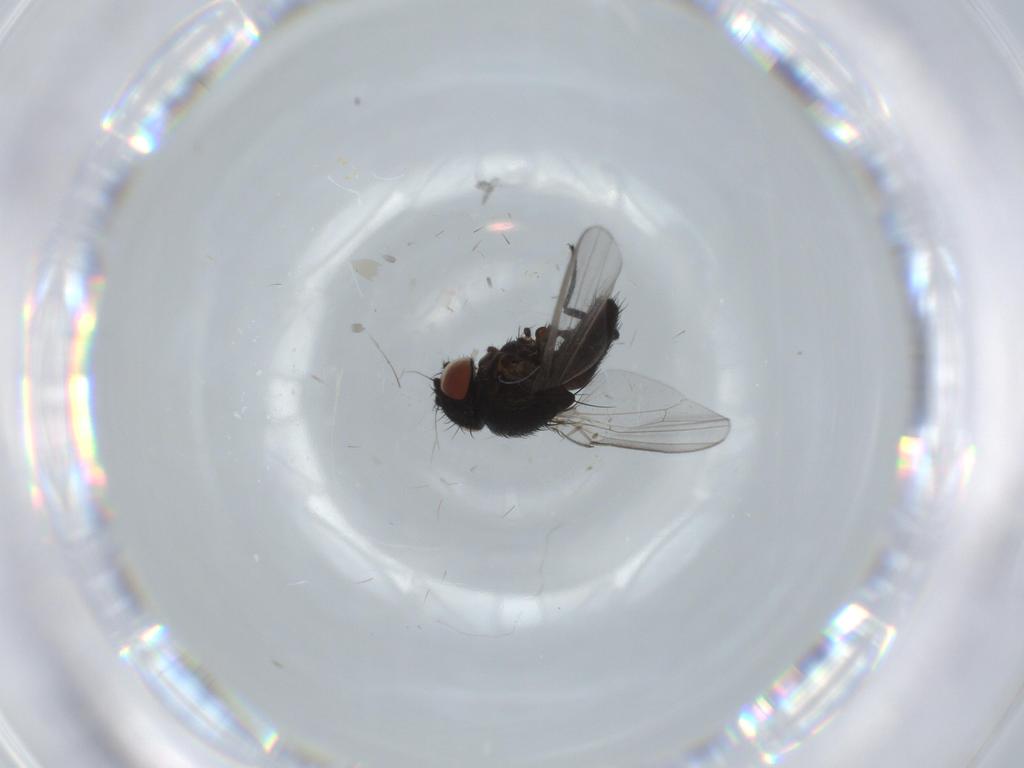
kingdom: Animalia
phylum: Arthropoda
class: Insecta
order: Diptera
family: Milichiidae
